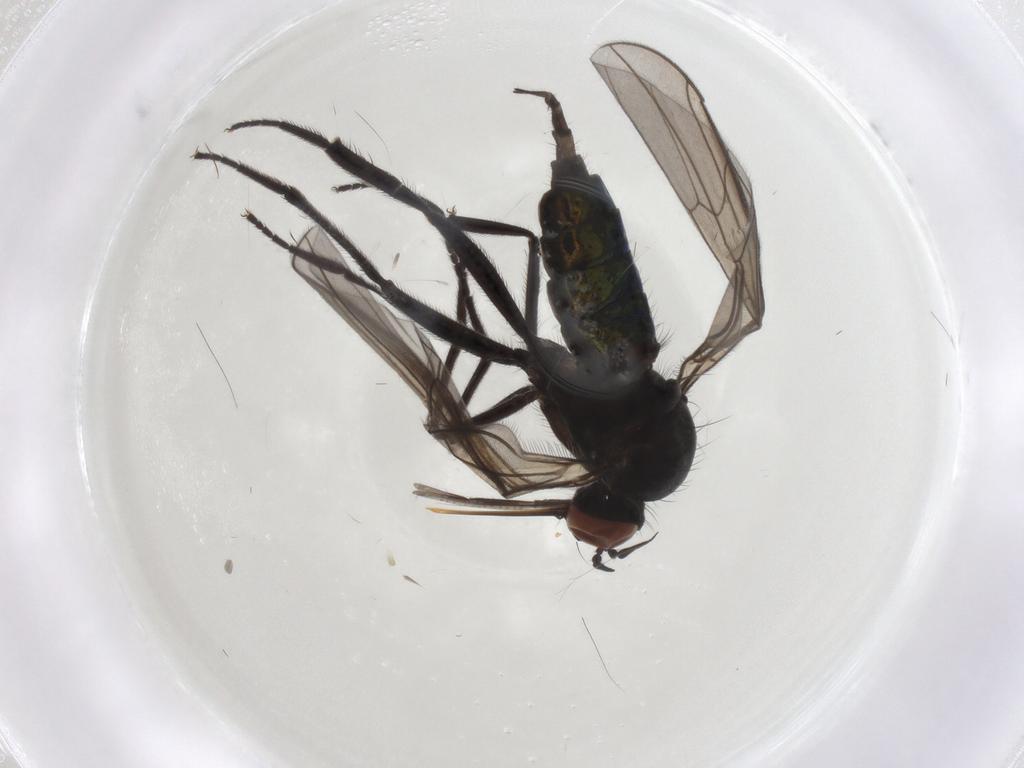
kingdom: Animalia
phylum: Arthropoda
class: Insecta
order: Diptera
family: Empididae
